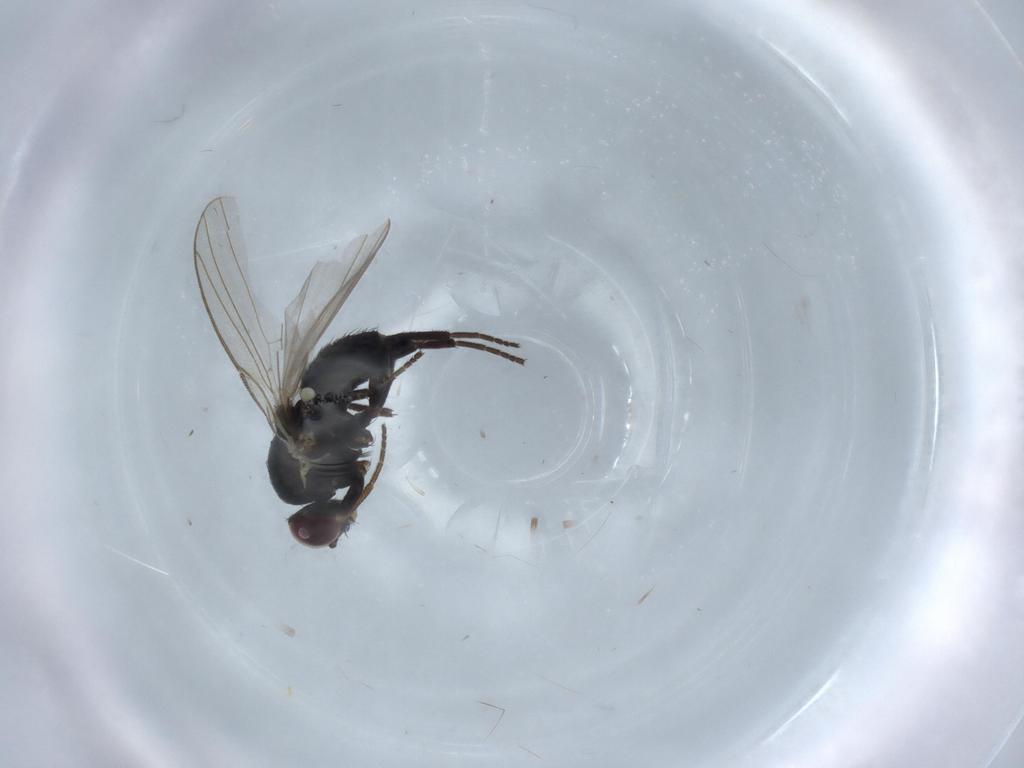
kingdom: Animalia
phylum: Arthropoda
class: Insecta
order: Diptera
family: Agromyzidae
